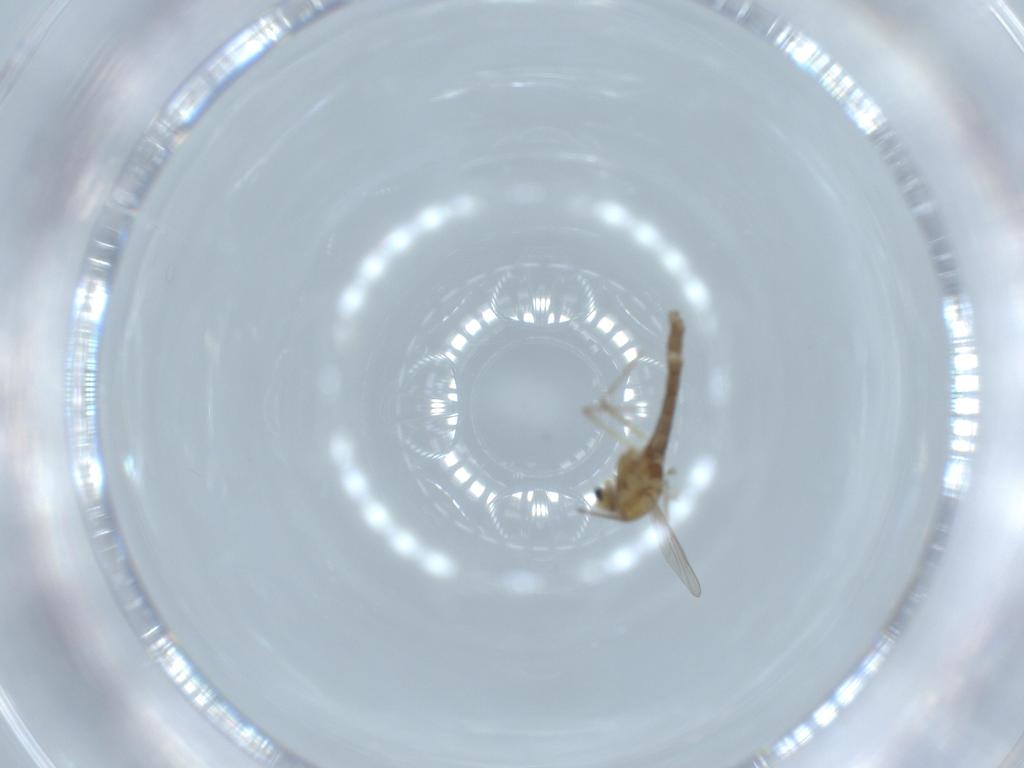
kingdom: Animalia
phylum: Arthropoda
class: Insecta
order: Diptera
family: Chironomidae
